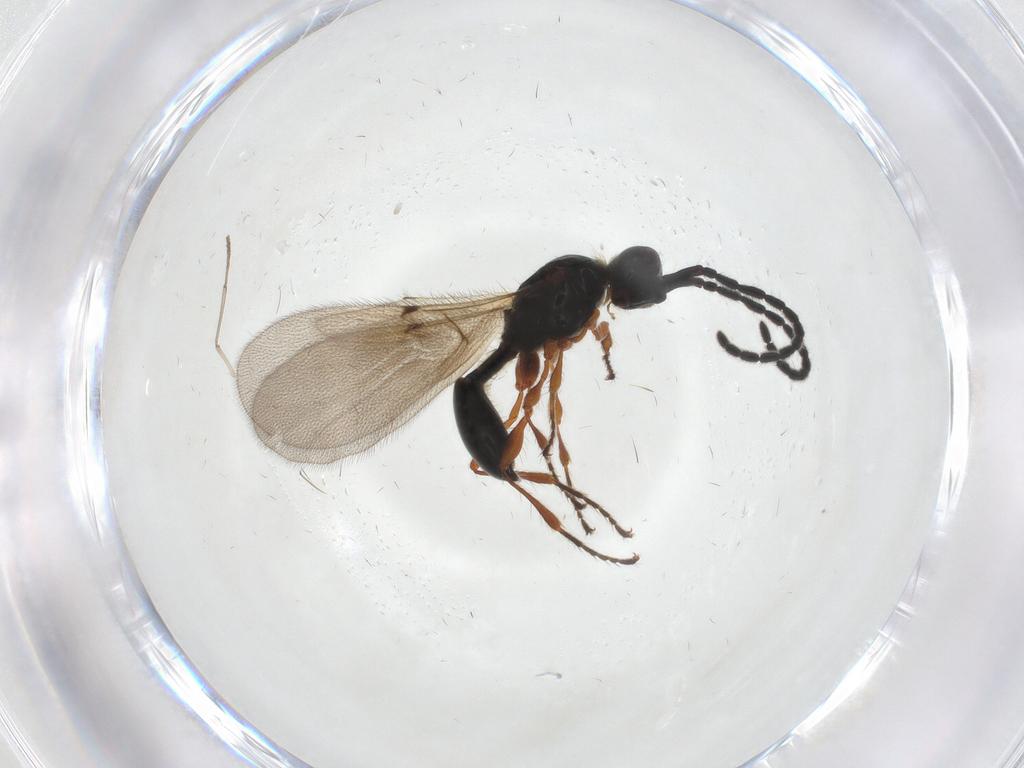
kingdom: Animalia
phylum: Arthropoda
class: Insecta
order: Hymenoptera
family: Diapriidae
